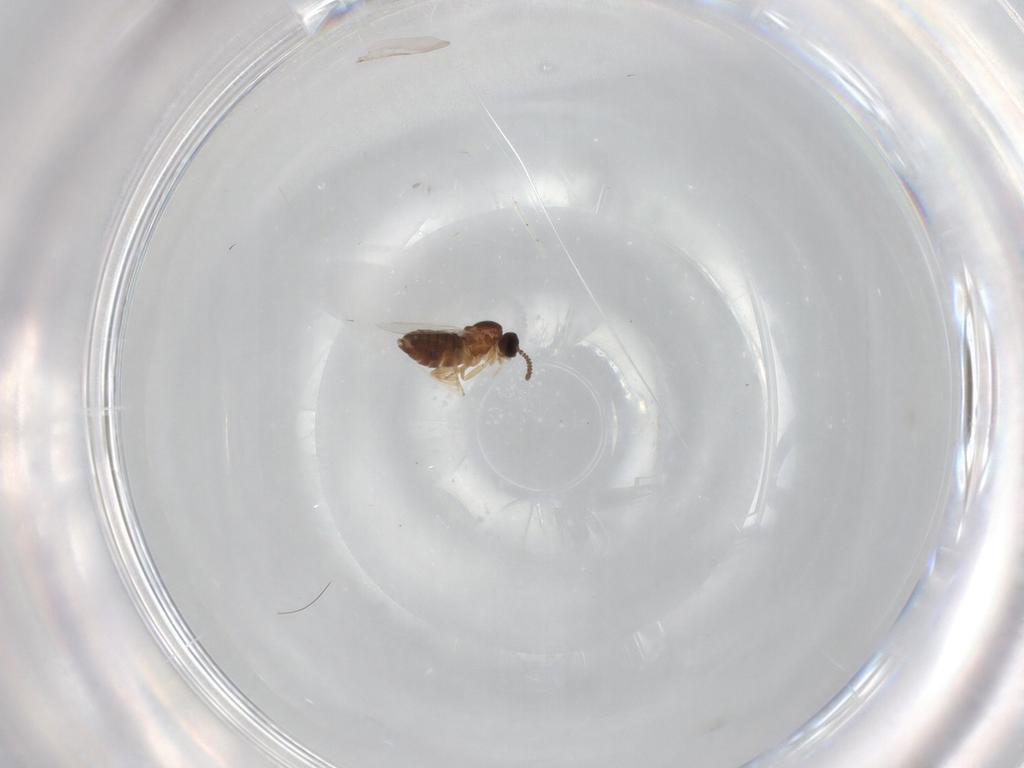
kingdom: Animalia
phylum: Arthropoda
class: Insecta
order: Diptera
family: Scatopsidae
